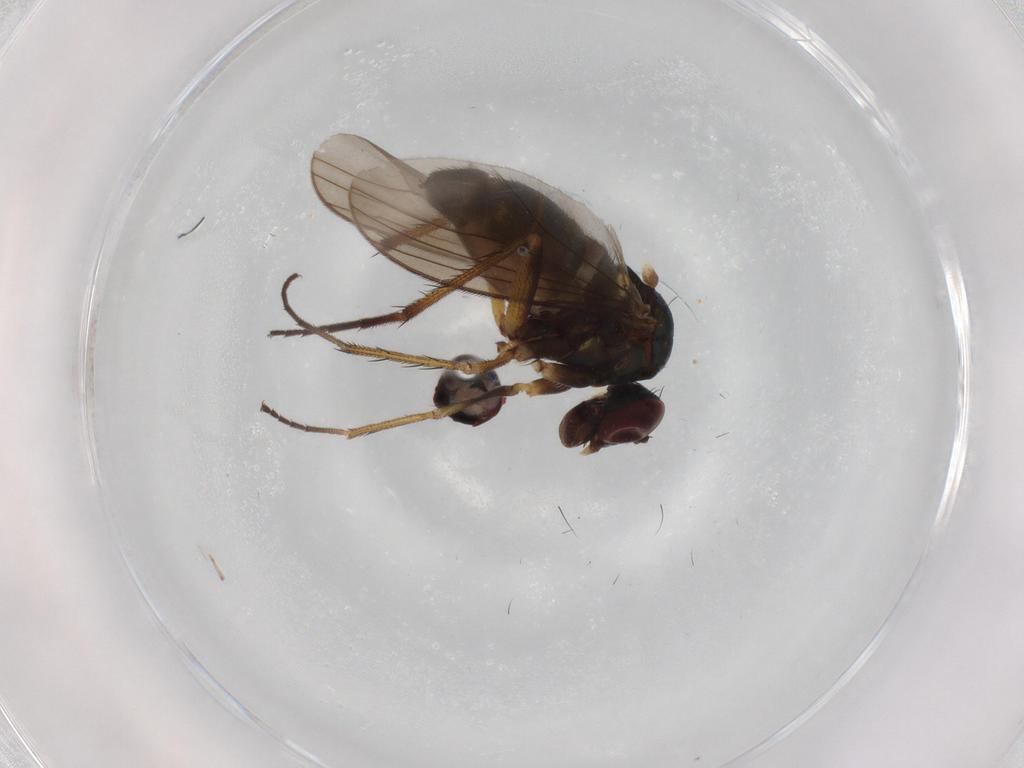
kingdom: Animalia
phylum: Arthropoda
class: Insecta
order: Diptera
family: Dolichopodidae
